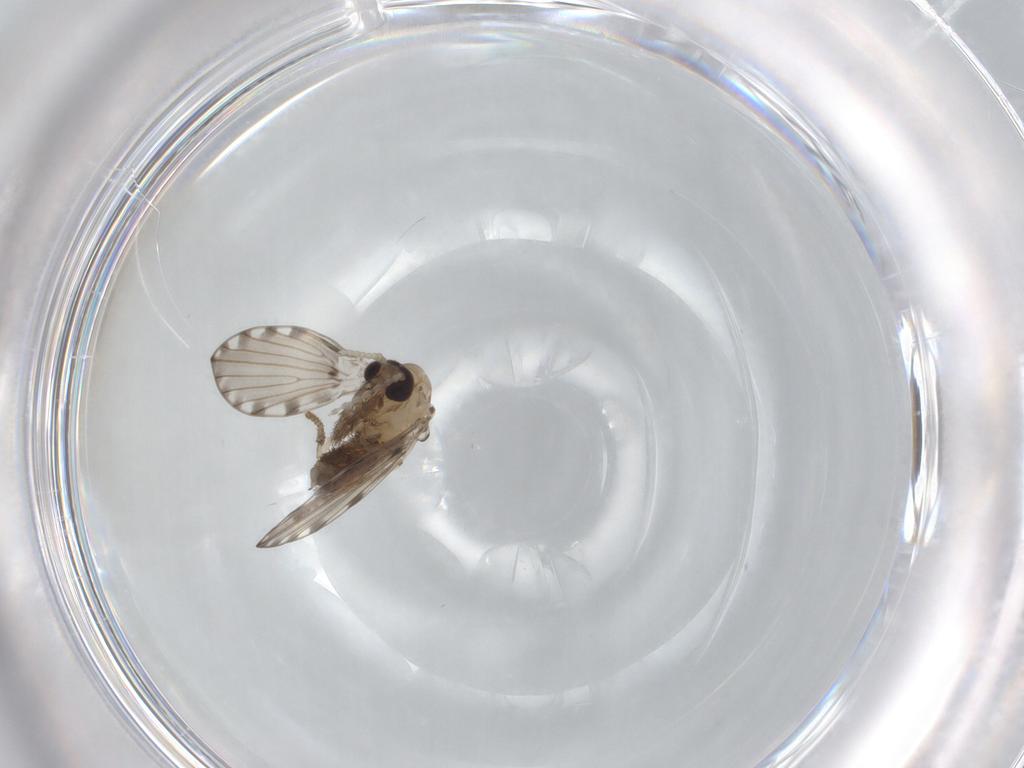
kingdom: Animalia
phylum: Arthropoda
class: Insecta
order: Diptera
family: Psychodidae
